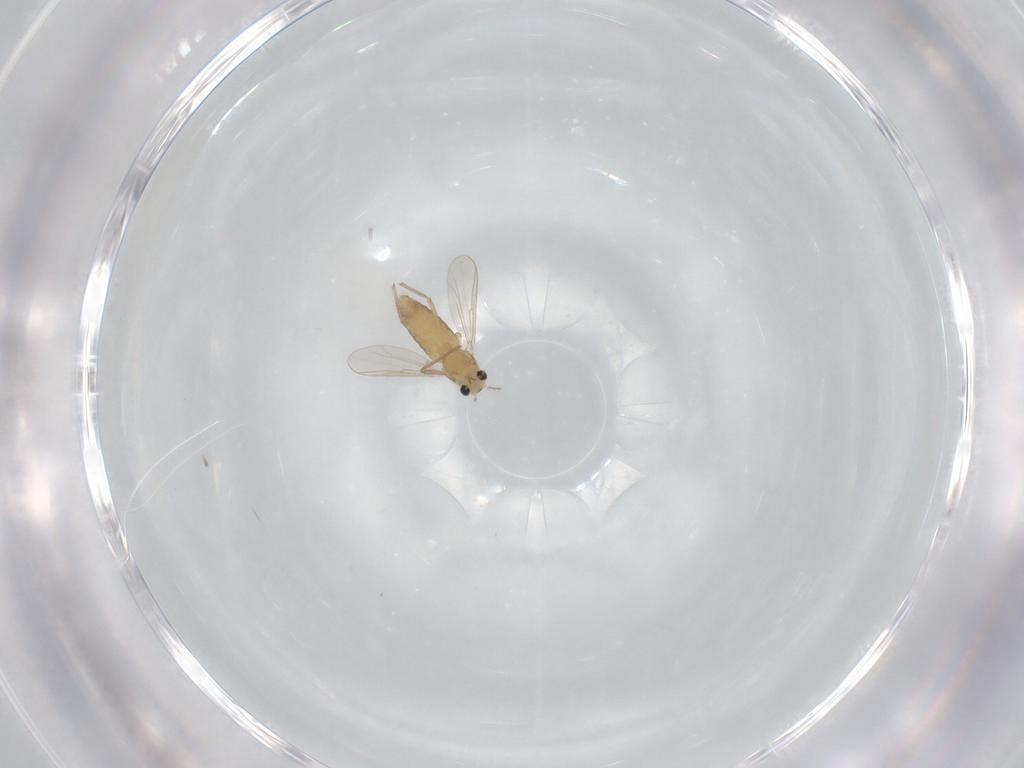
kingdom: Animalia
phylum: Arthropoda
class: Insecta
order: Diptera
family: Chironomidae
